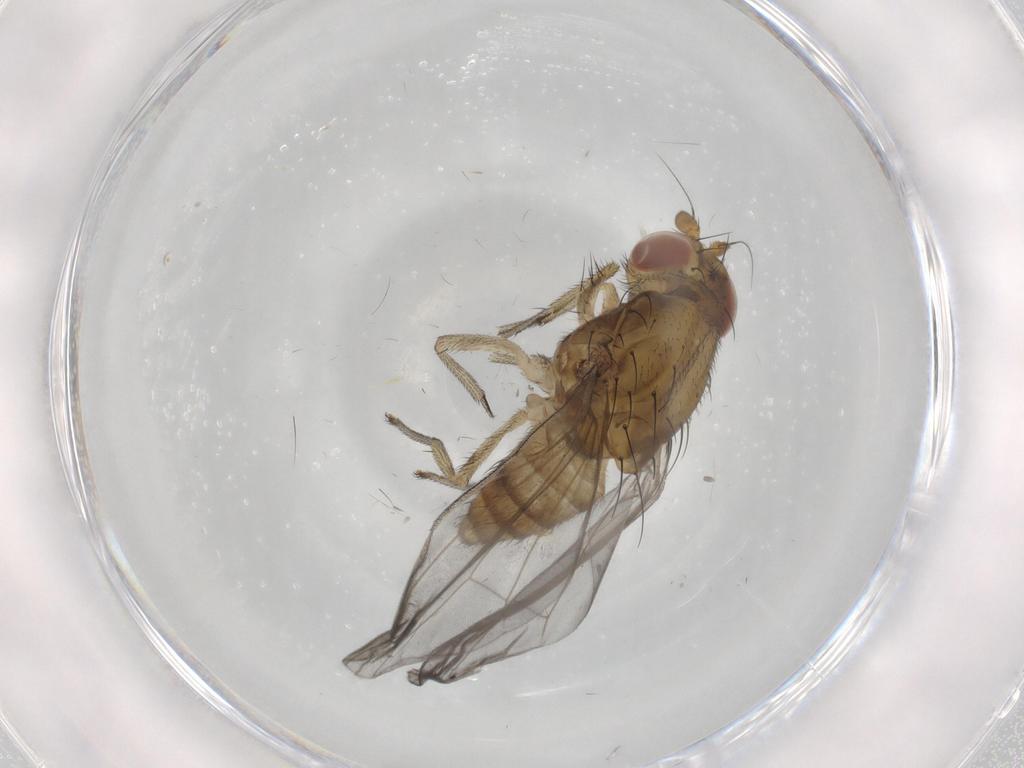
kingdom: Animalia
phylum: Arthropoda
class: Insecta
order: Diptera
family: Lauxaniidae
